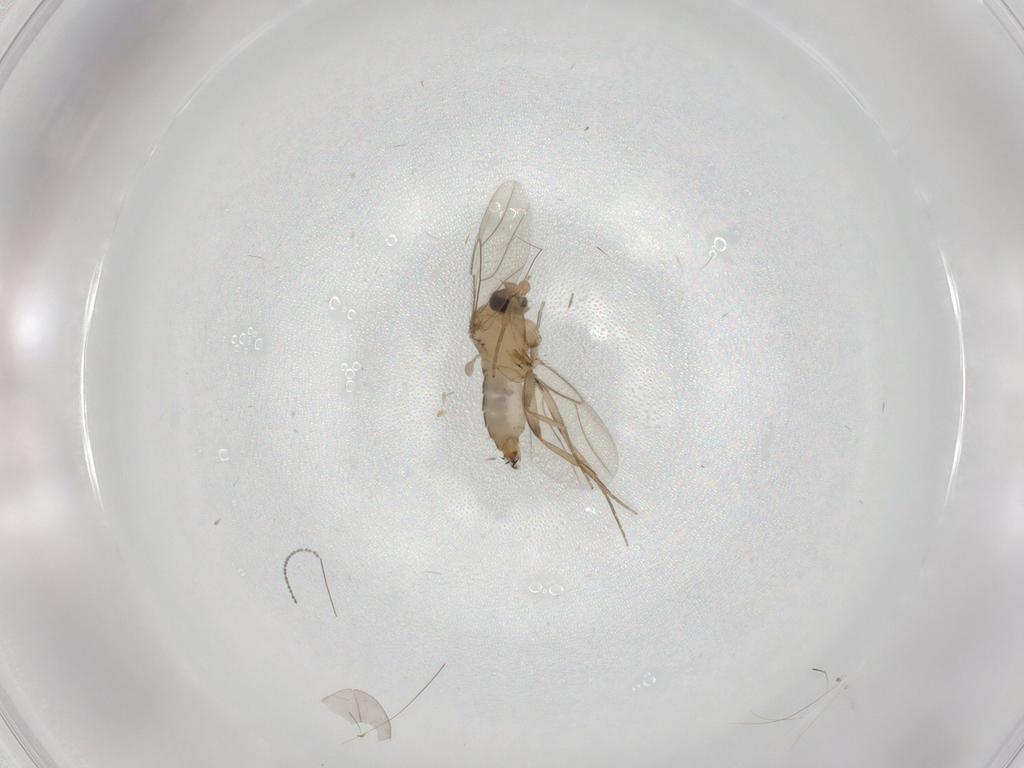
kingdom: Animalia
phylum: Arthropoda
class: Insecta
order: Diptera
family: Phoridae
